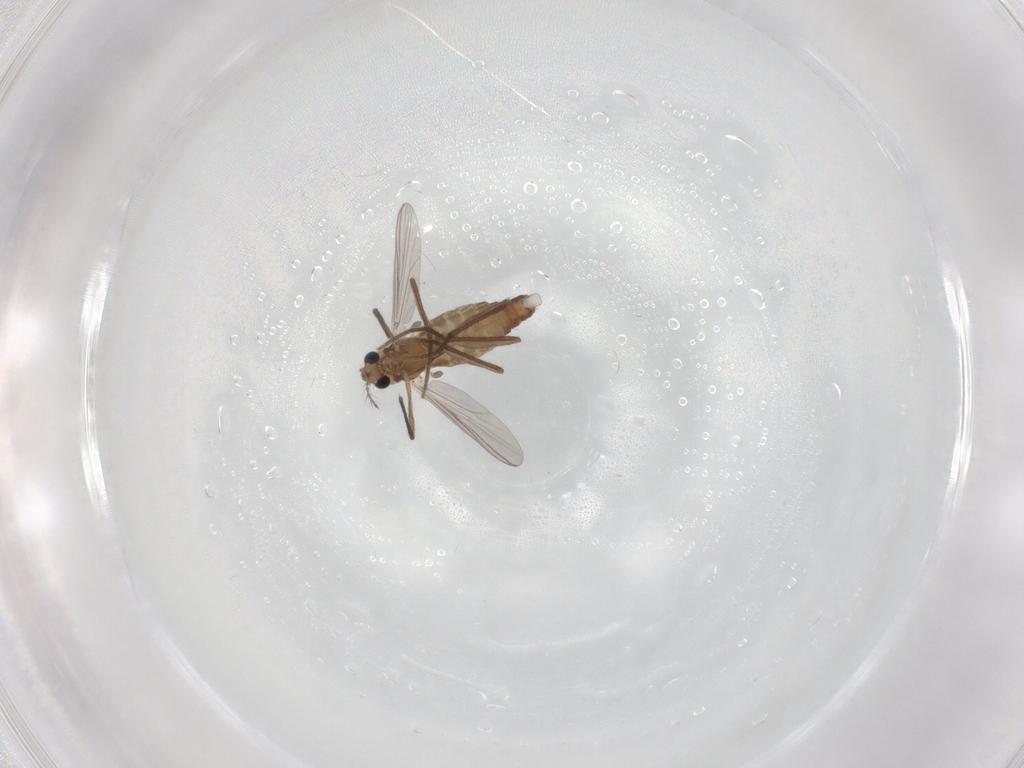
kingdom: Animalia
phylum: Arthropoda
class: Insecta
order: Diptera
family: Chironomidae
